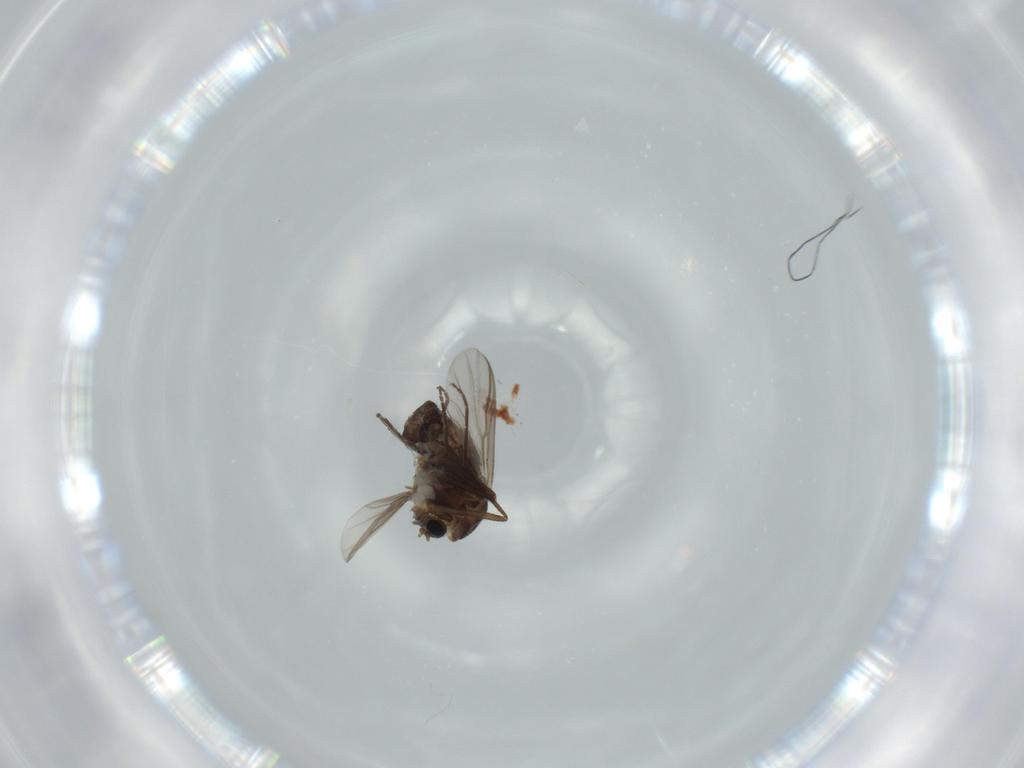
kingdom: Animalia
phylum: Arthropoda
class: Insecta
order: Diptera
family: Chironomidae
